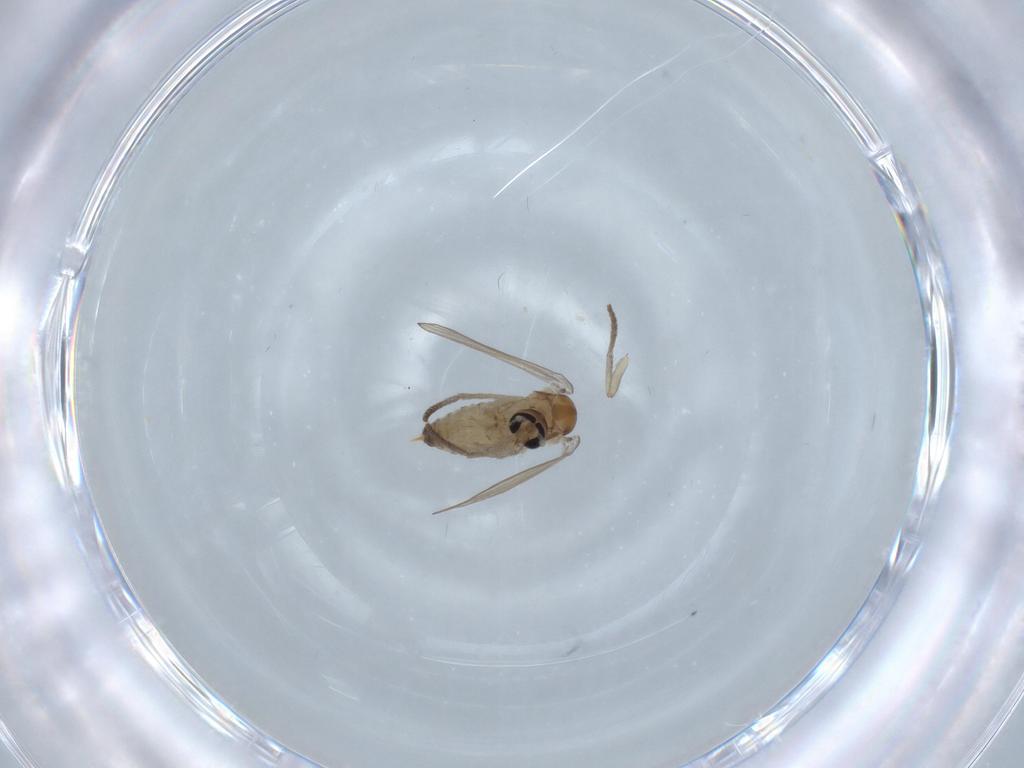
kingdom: Animalia
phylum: Arthropoda
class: Insecta
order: Diptera
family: Psychodidae
